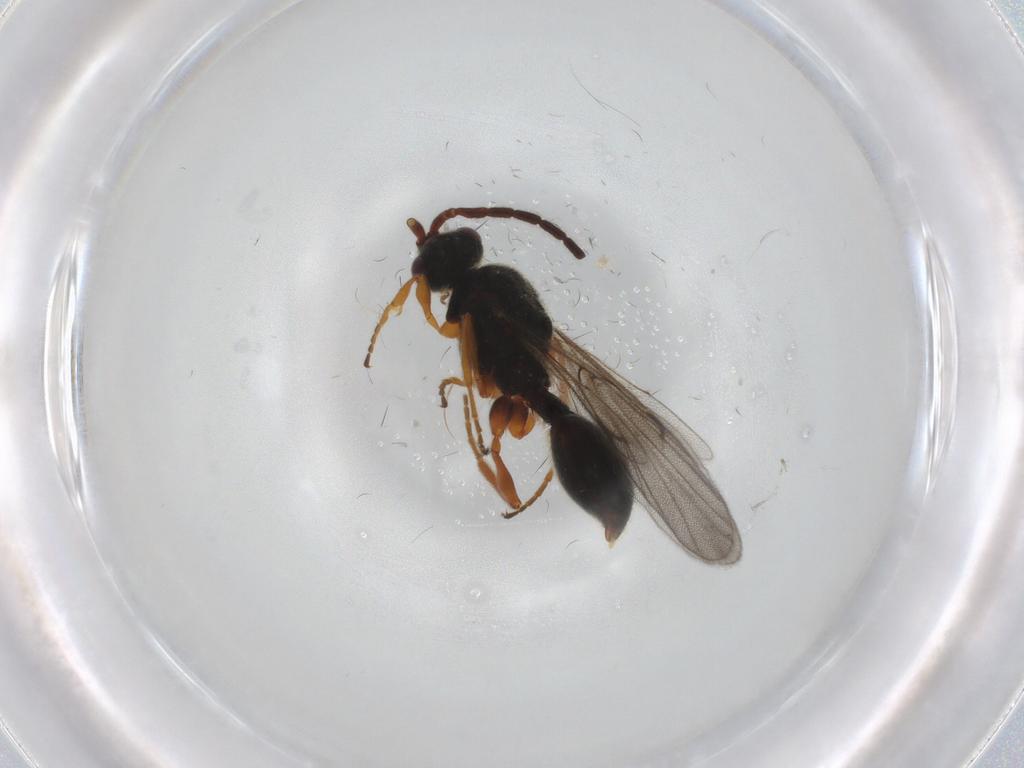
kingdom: Animalia
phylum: Arthropoda
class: Insecta
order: Hymenoptera
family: Diapriidae
